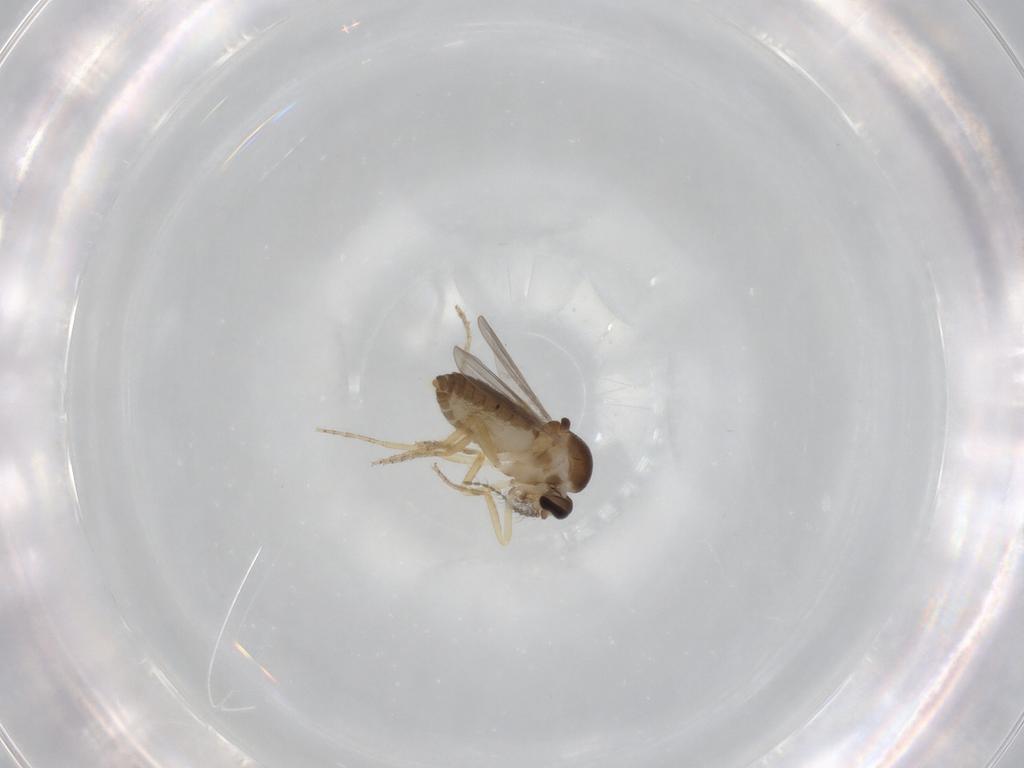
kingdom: Animalia
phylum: Arthropoda
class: Insecta
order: Diptera
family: Ceratopogonidae
